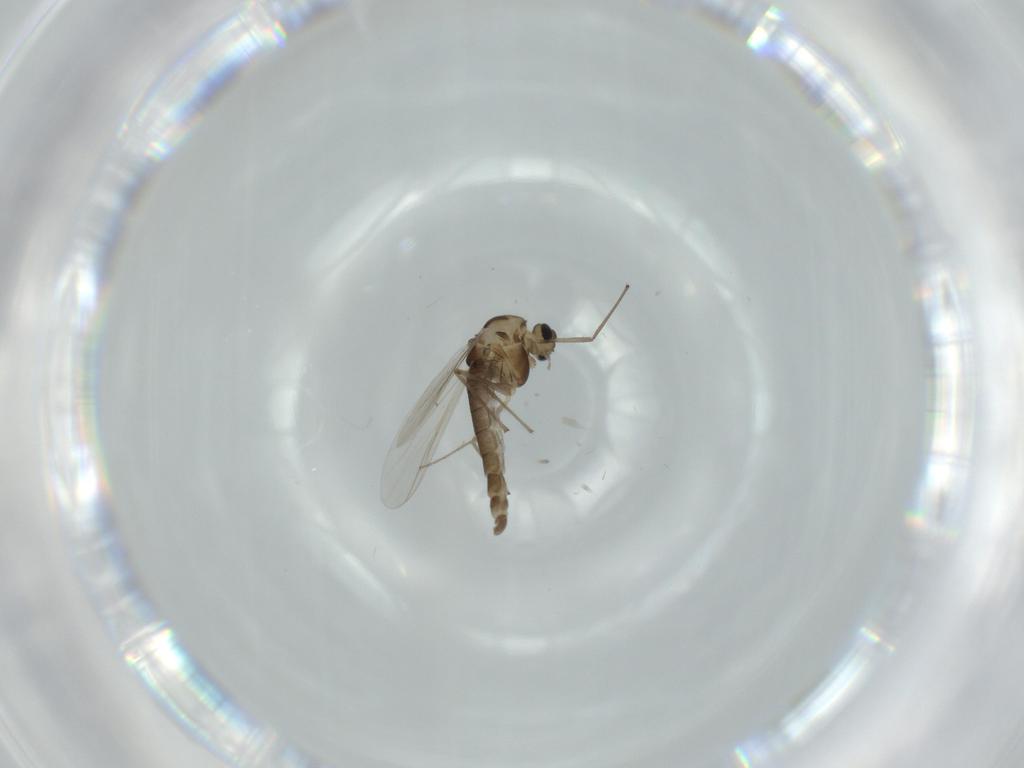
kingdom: Animalia
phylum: Arthropoda
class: Insecta
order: Diptera
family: Chironomidae
